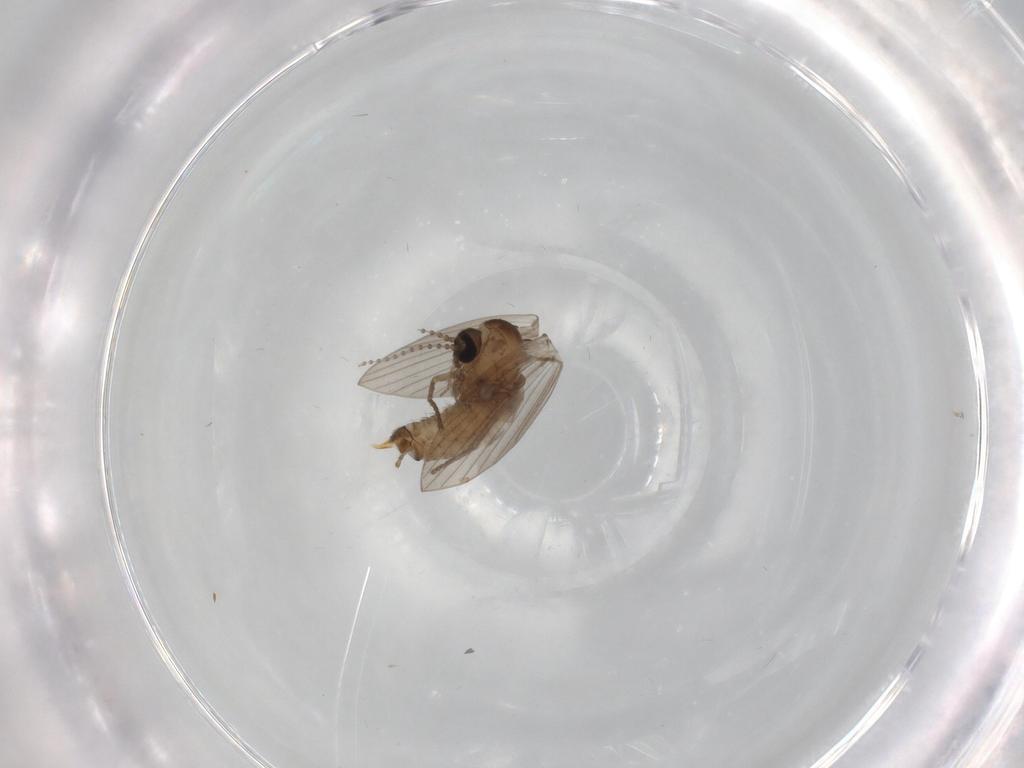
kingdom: Animalia
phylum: Arthropoda
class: Insecta
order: Diptera
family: Psychodidae
